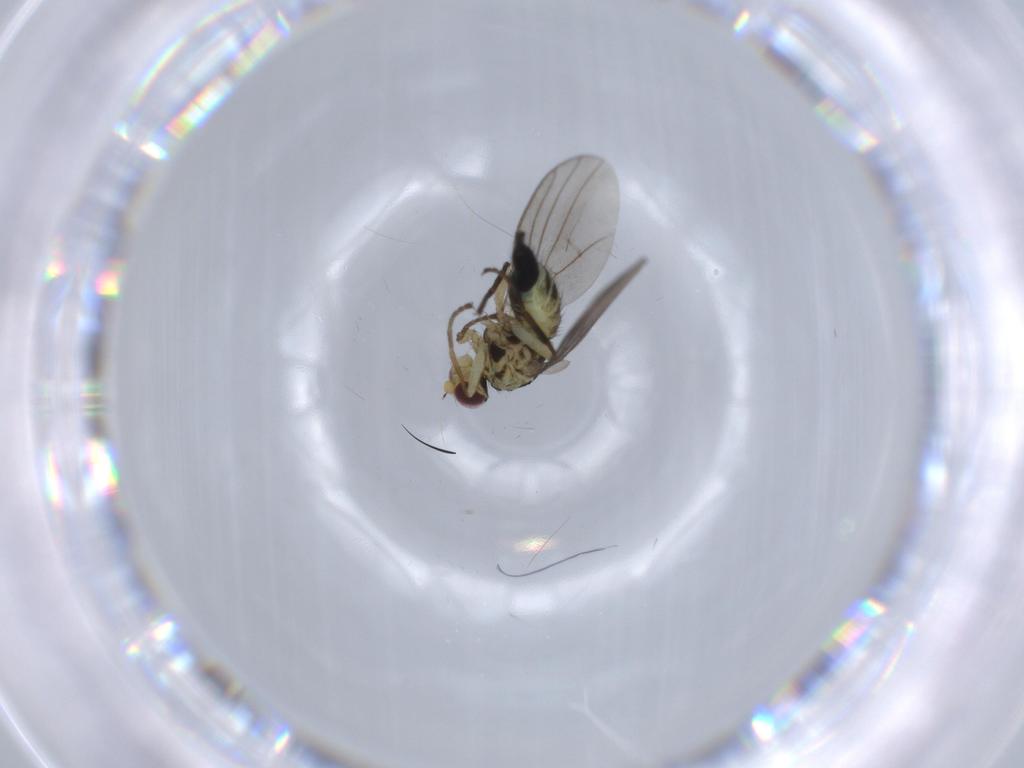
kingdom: Animalia
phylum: Arthropoda
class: Insecta
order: Diptera
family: Agromyzidae
